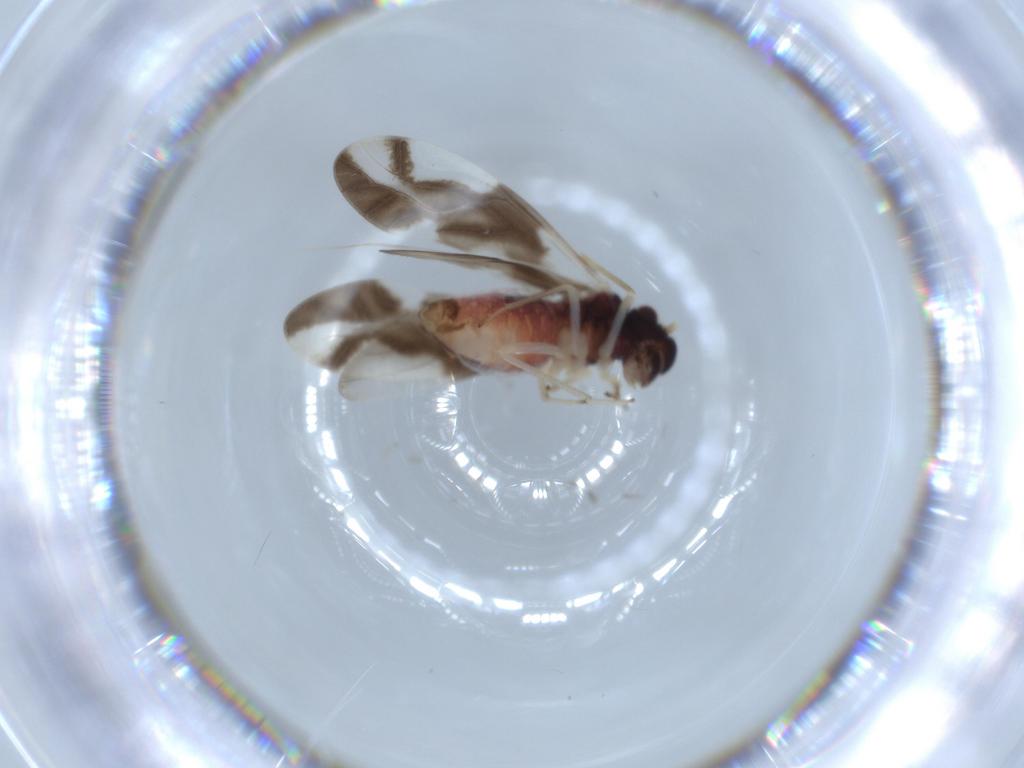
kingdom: Animalia
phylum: Arthropoda
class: Insecta
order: Psocodea
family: Caeciliusidae
